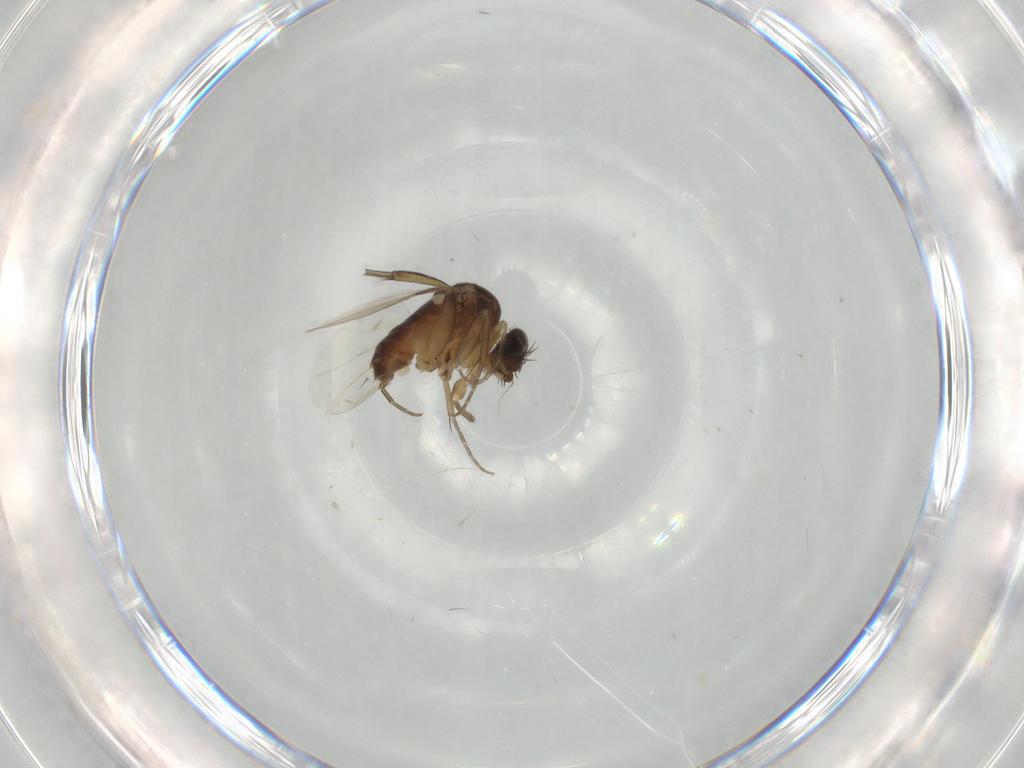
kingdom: Animalia
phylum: Arthropoda
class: Insecta
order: Diptera
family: Phoridae
